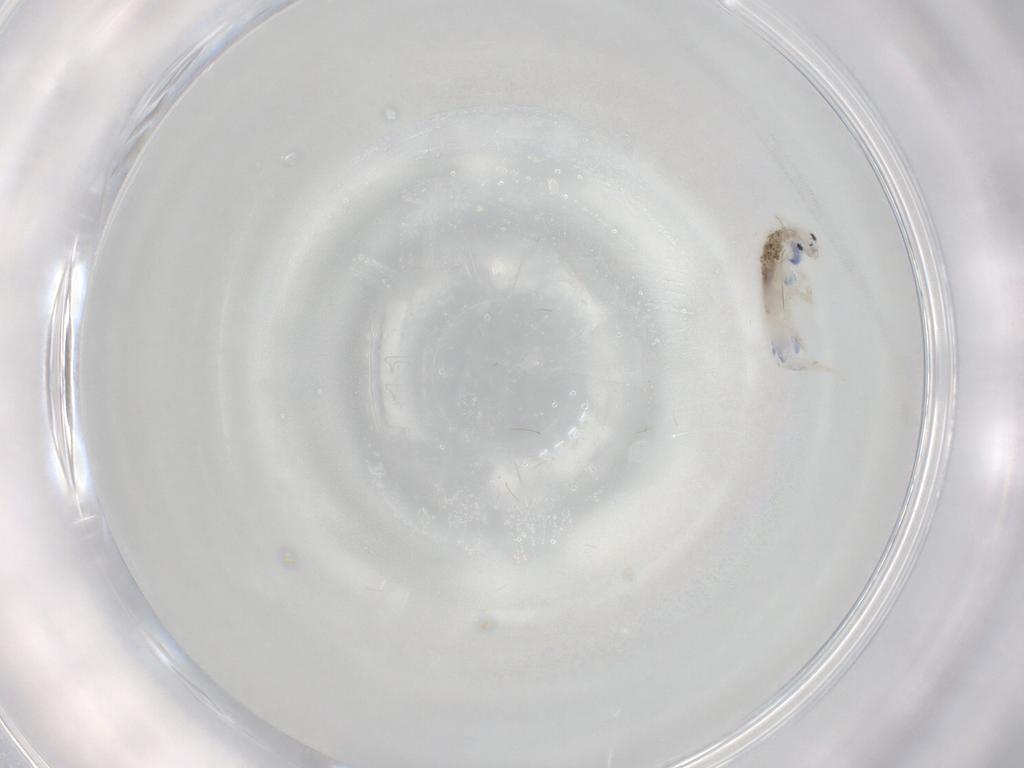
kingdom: Animalia
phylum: Arthropoda
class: Collembola
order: Entomobryomorpha
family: Entomobryidae
